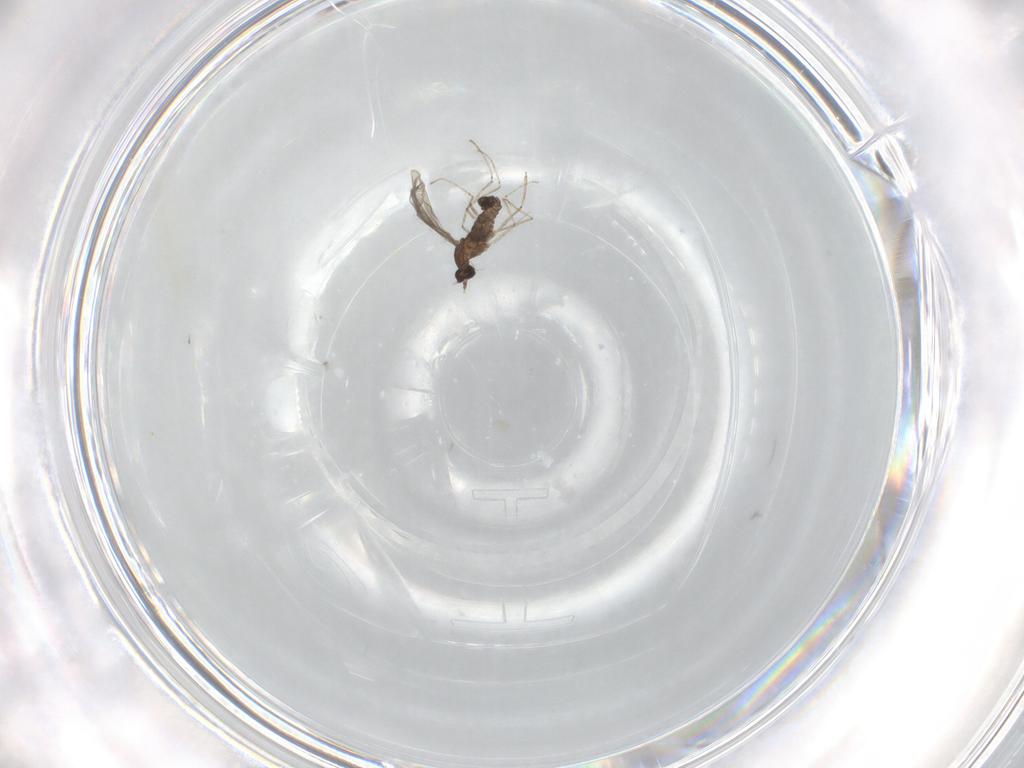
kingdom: Animalia
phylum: Arthropoda
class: Insecta
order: Diptera
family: Cecidomyiidae
